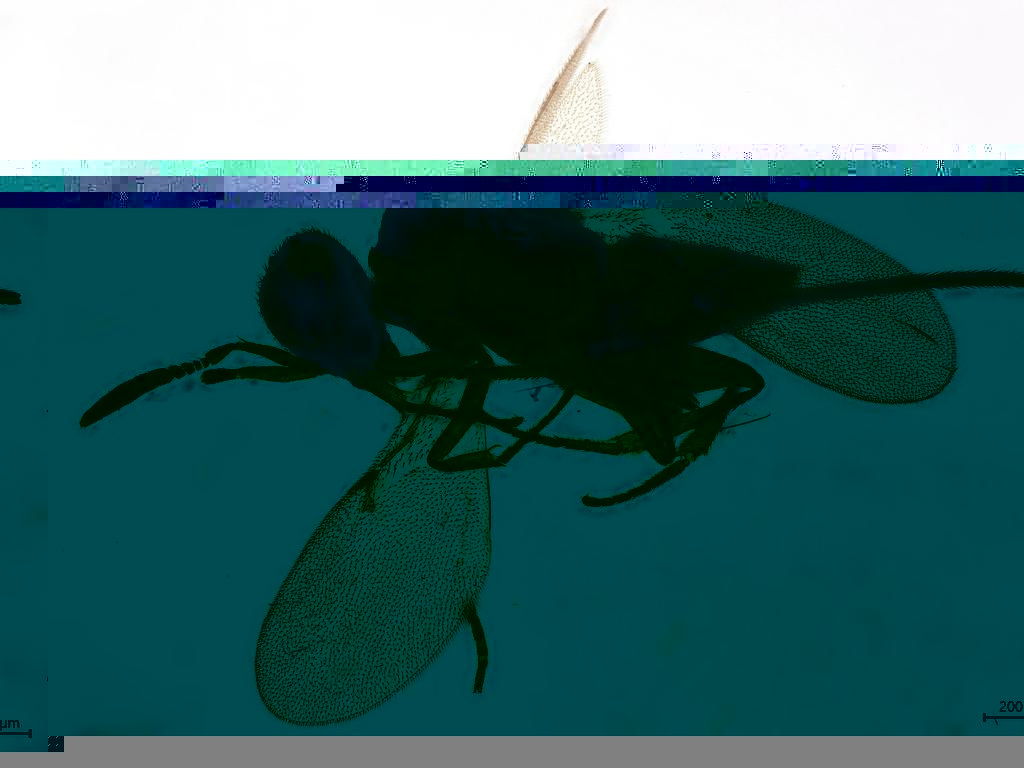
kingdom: Animalia
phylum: Arthropoda
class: Insecta
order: Hymenoptera
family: Encyrtidae
